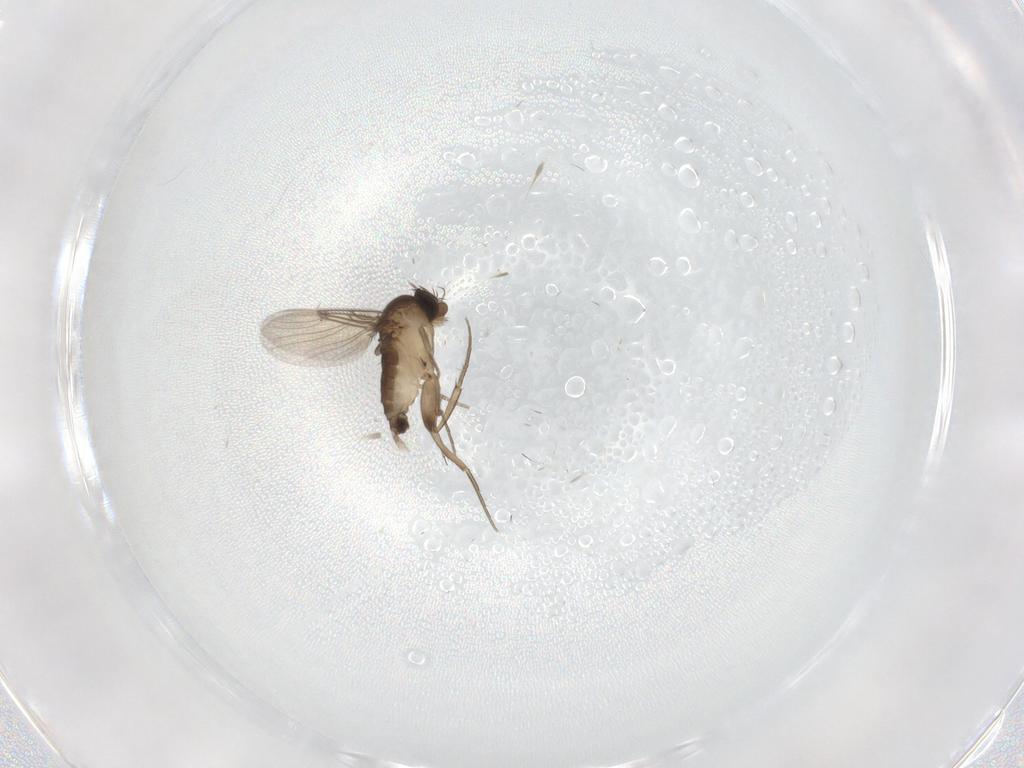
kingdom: Animalia
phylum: Arthropoda
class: Insecta
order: Diptera
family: Phoridae
